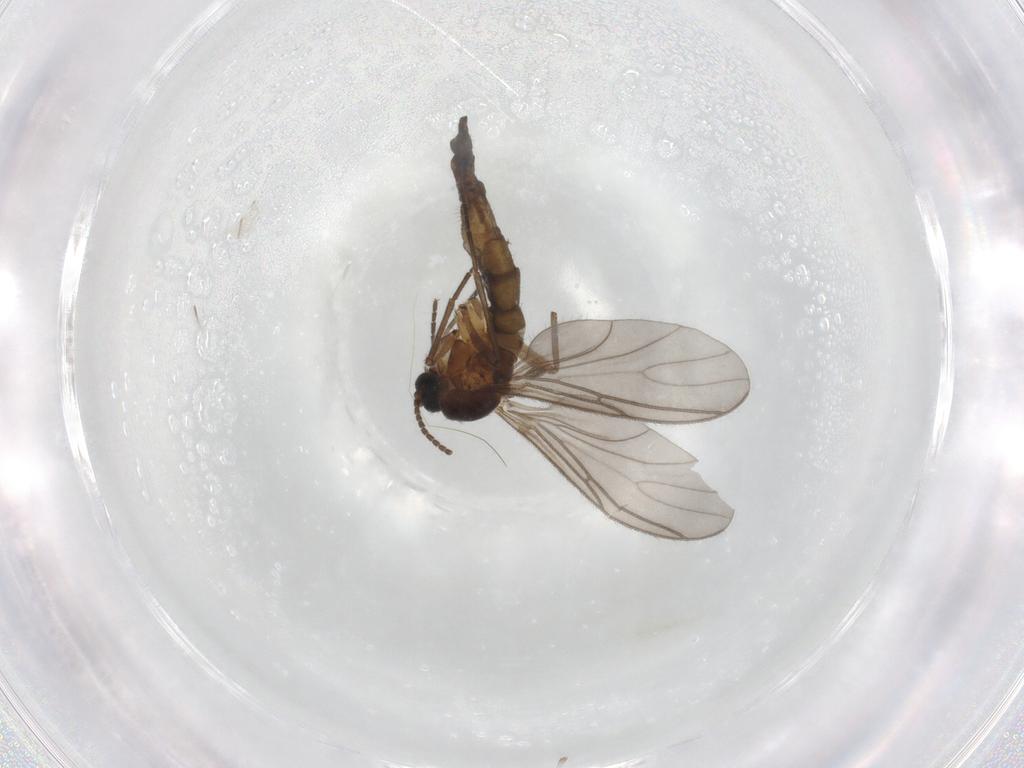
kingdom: Animalia
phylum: Arthropoda
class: Insecta
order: Diptera
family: Sciaridae
